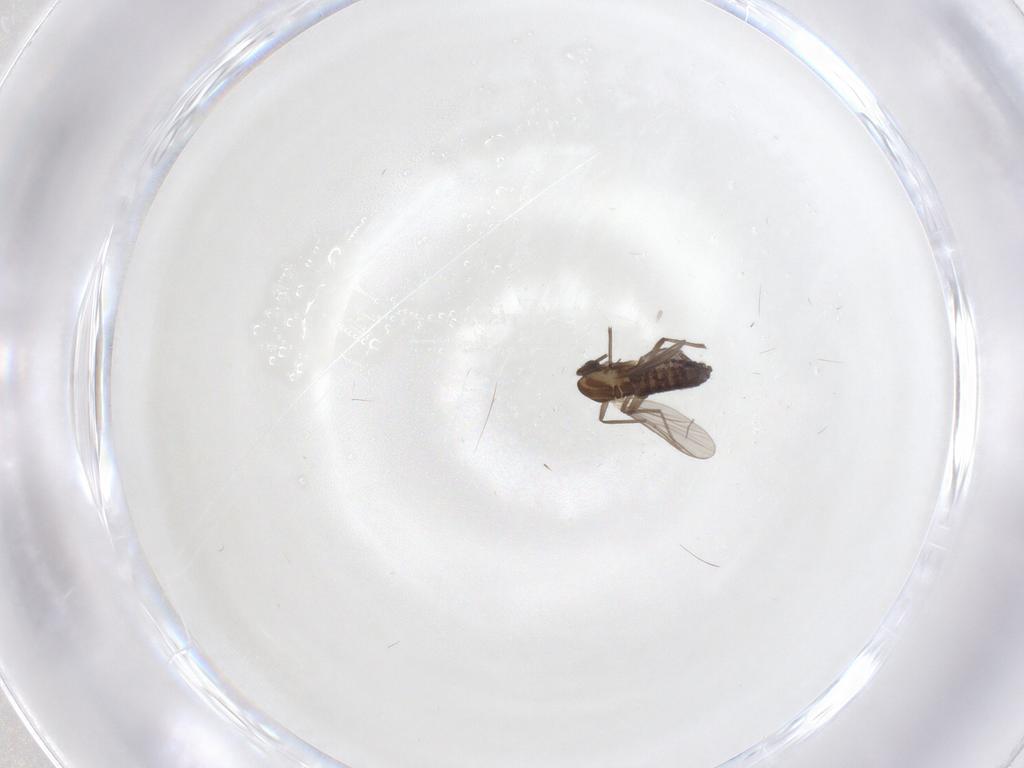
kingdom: Animalia
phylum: Arthropoda
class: Insecta
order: Diptera
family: Chironomidae
